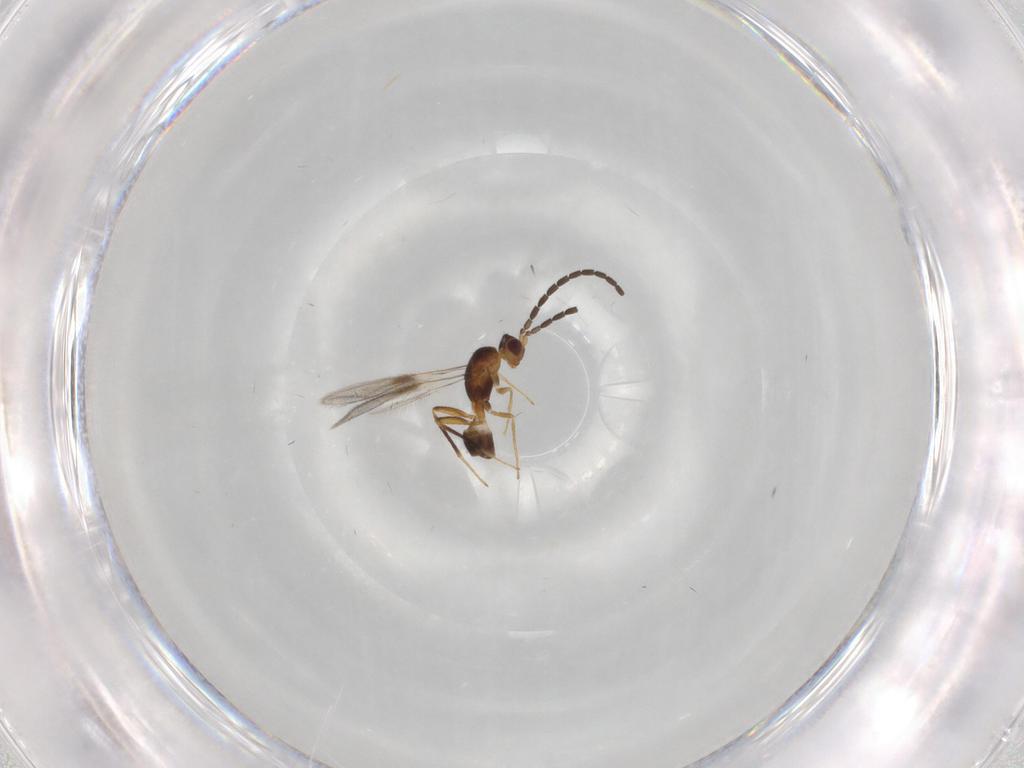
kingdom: Animalia
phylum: Arthropoda
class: Insecta
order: Hymenoptera
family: Mymaridae
